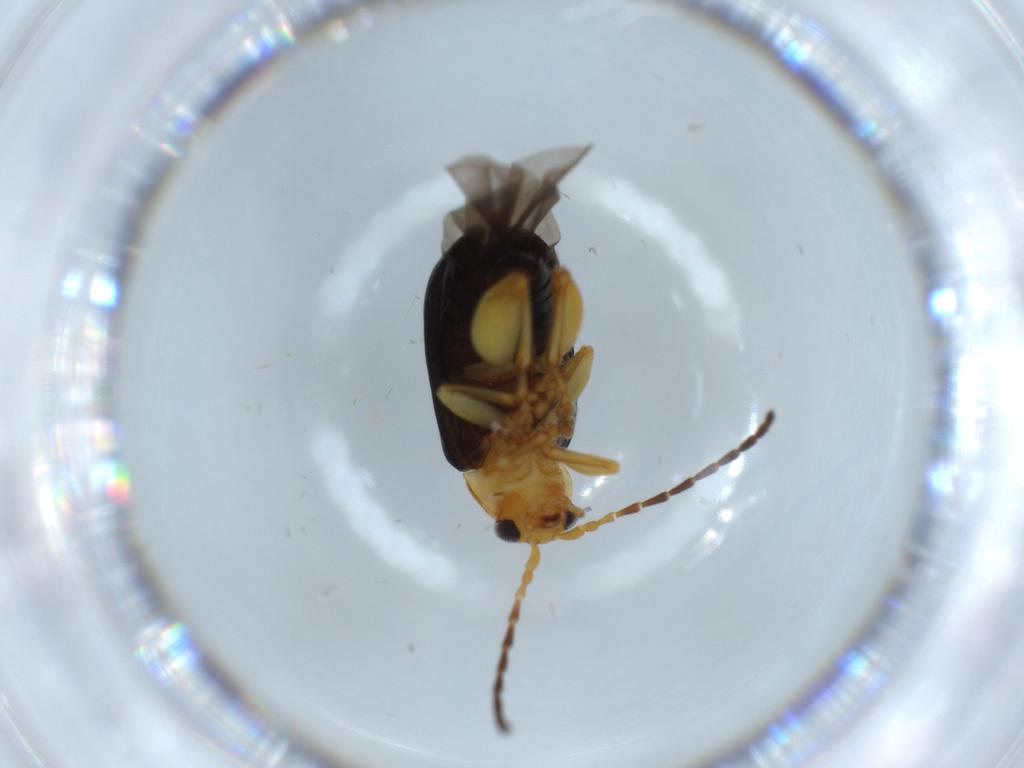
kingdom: Animalia
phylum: Arthropoda
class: Insecta
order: Coleoptera
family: Chrysomelidae
